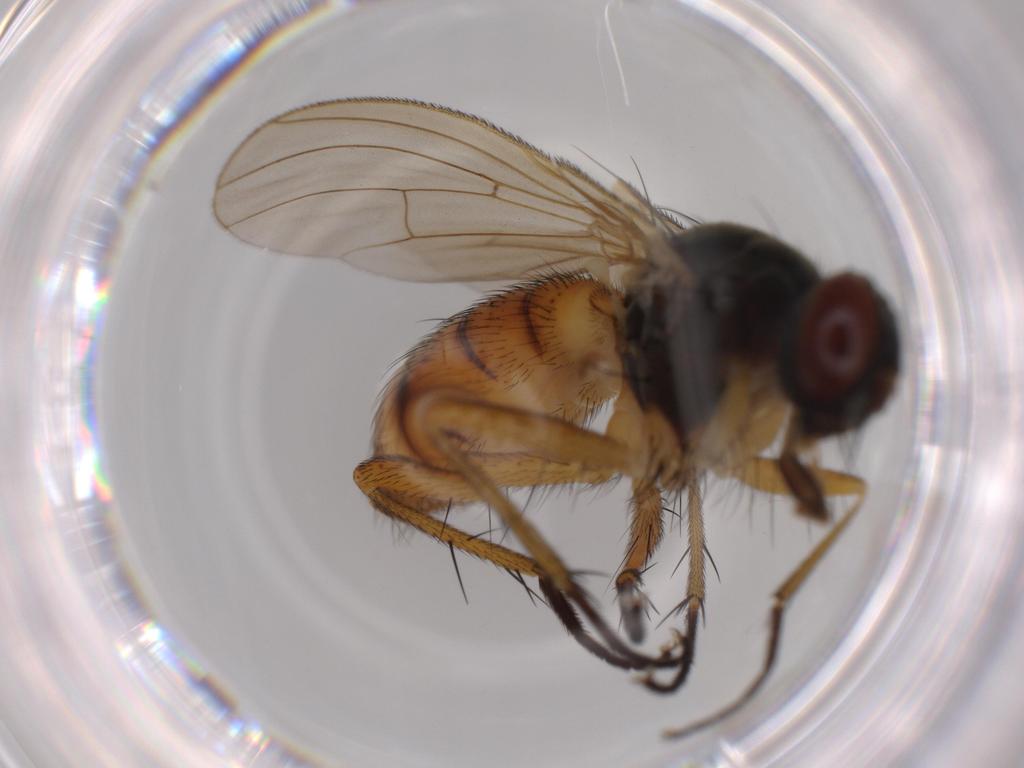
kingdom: Animalia
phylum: Arthropoda
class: Insecta
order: Diptera
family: Muscidae
